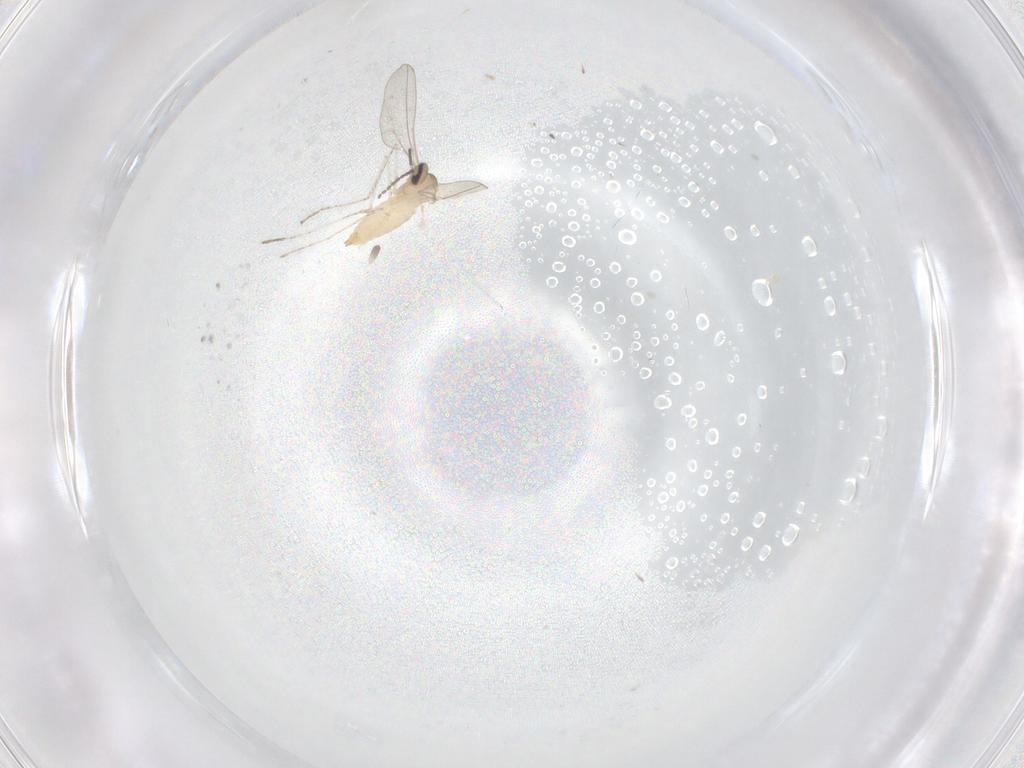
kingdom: Animalia
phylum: Arthropoda
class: Insecta
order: Diptera
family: Cecidomyiidae
